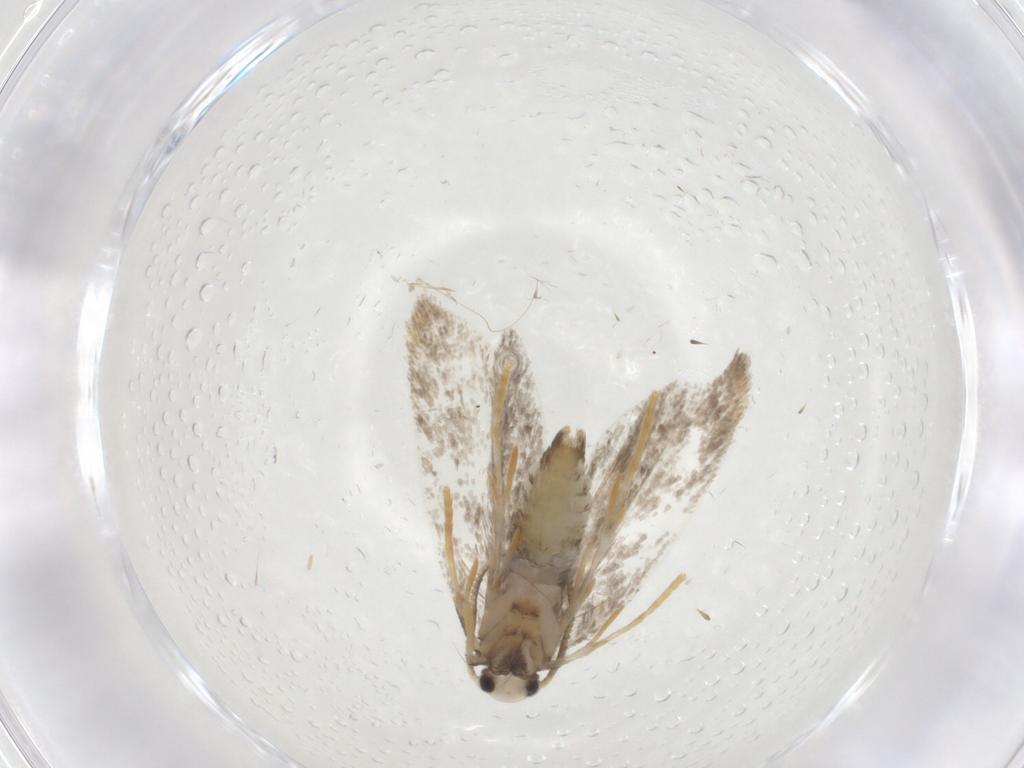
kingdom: Animalia
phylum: Arthropoda
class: Insecta
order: Lepidoptera
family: Psychidae
